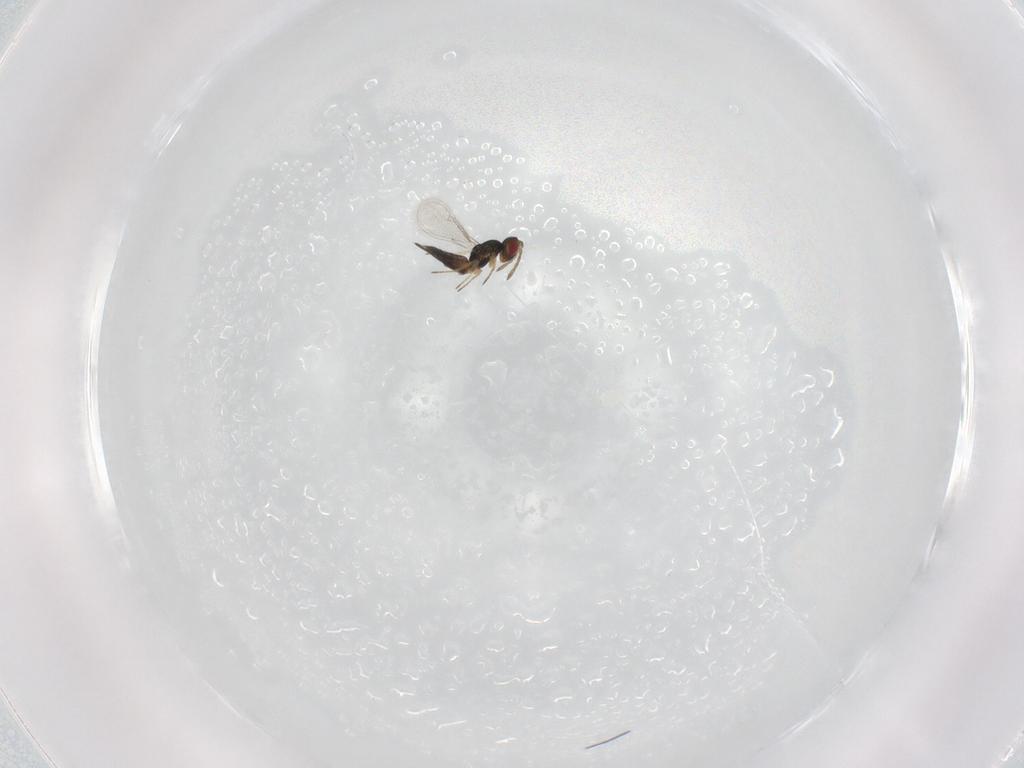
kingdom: Animalia
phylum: Arthropoda
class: Insecta
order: Hymenoptera
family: Eulophidae
